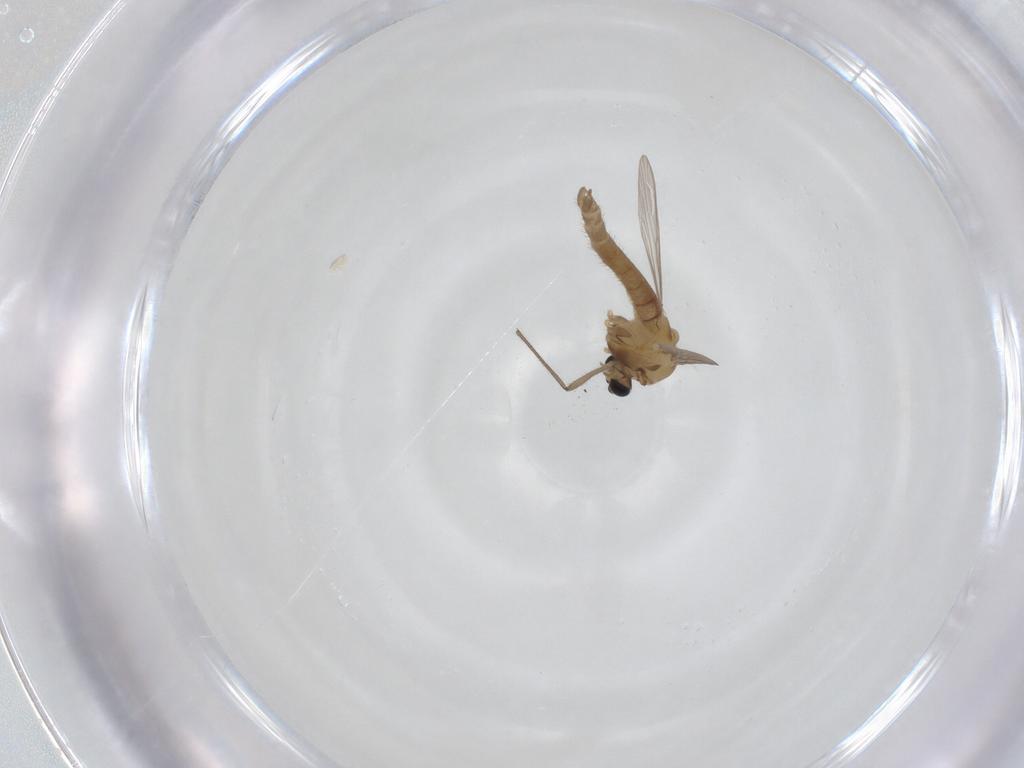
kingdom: Animalia
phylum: Arthropoda
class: Insecta
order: Diptera
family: Chironomidae
